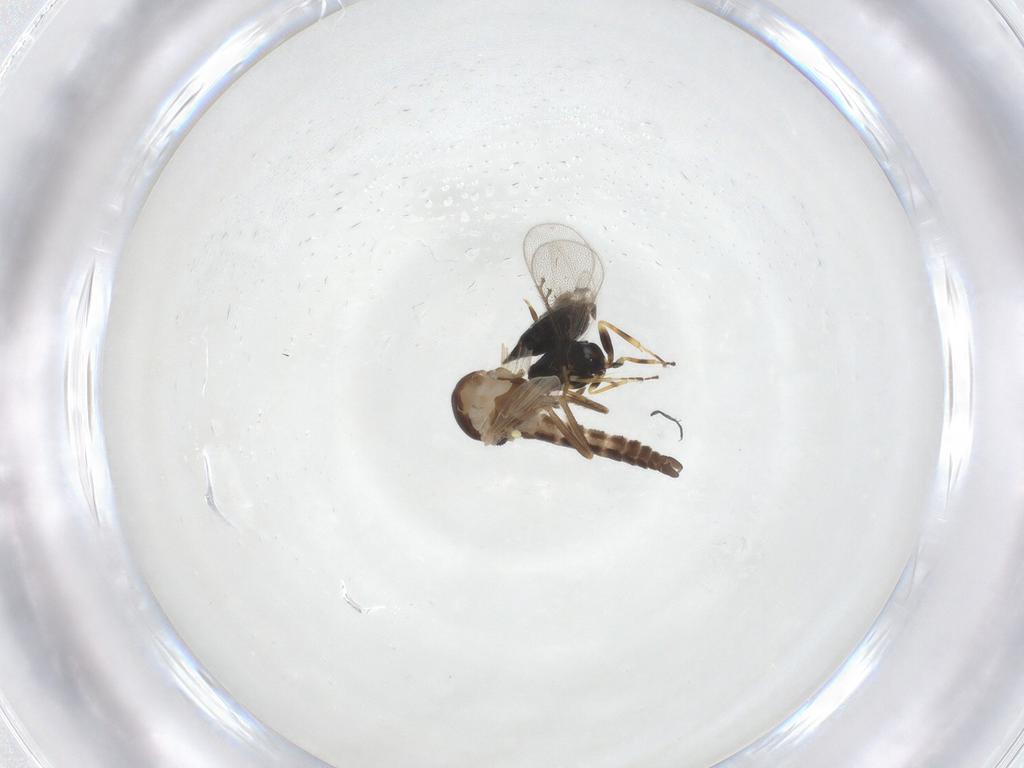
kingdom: Animalia
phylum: Arthropoda
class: Insecta
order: Hymenoptera
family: Eulophidae
